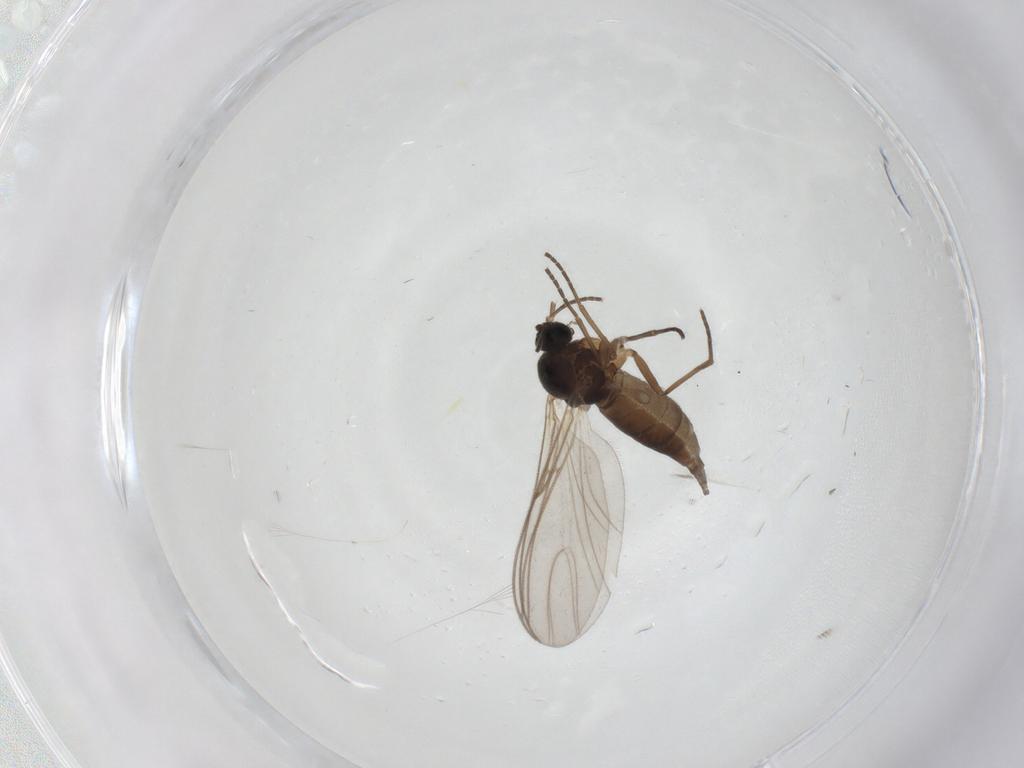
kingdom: Animalia
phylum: Arthropoda
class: Insecta
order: Diptera
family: Sciaridae
